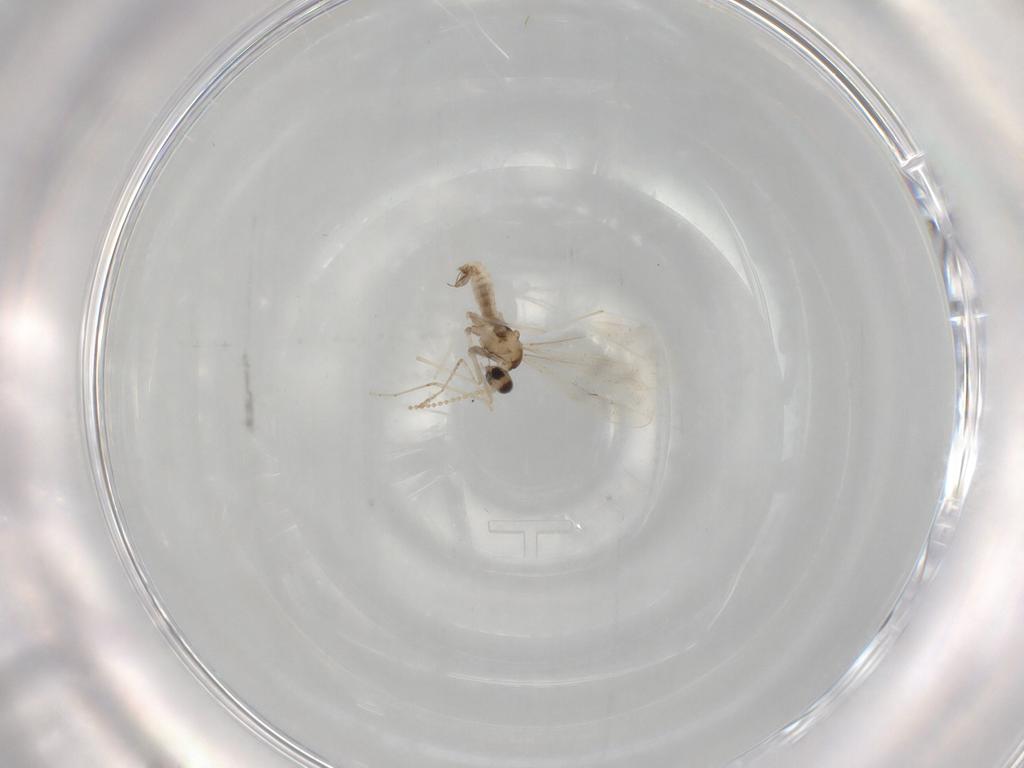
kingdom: Animalia
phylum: Arthropoda
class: Insecta
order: Diptera
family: Cecidomyiidae
